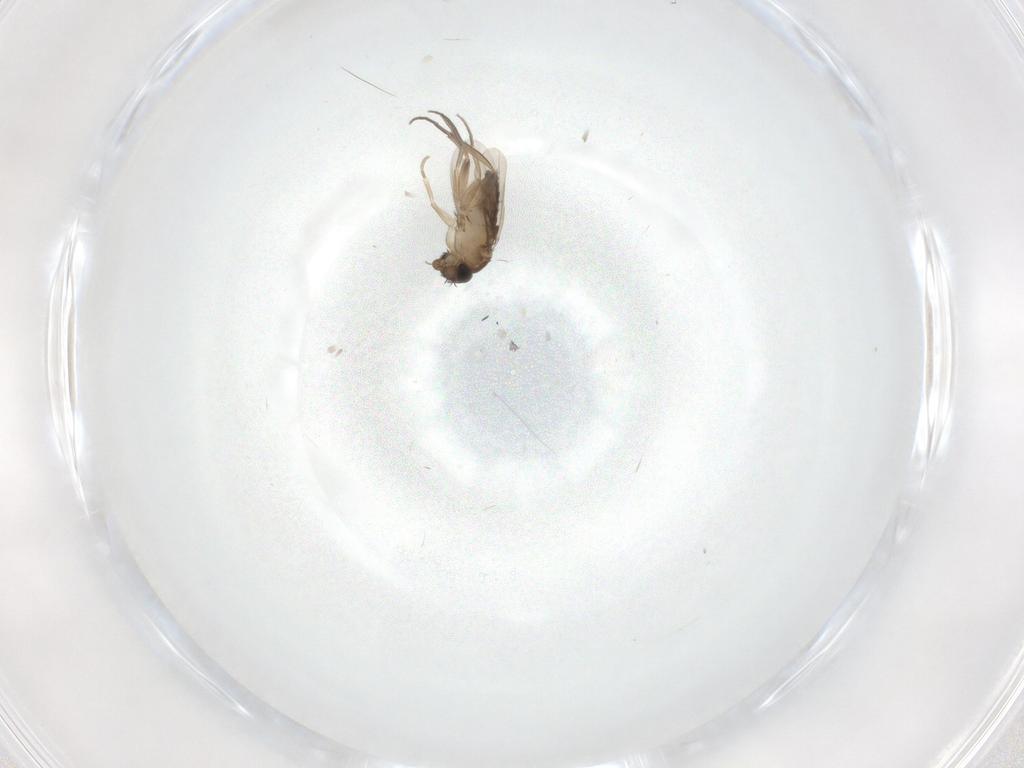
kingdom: Animalia
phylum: Arthropoda
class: Insecta
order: Diptera
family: Phoridae
